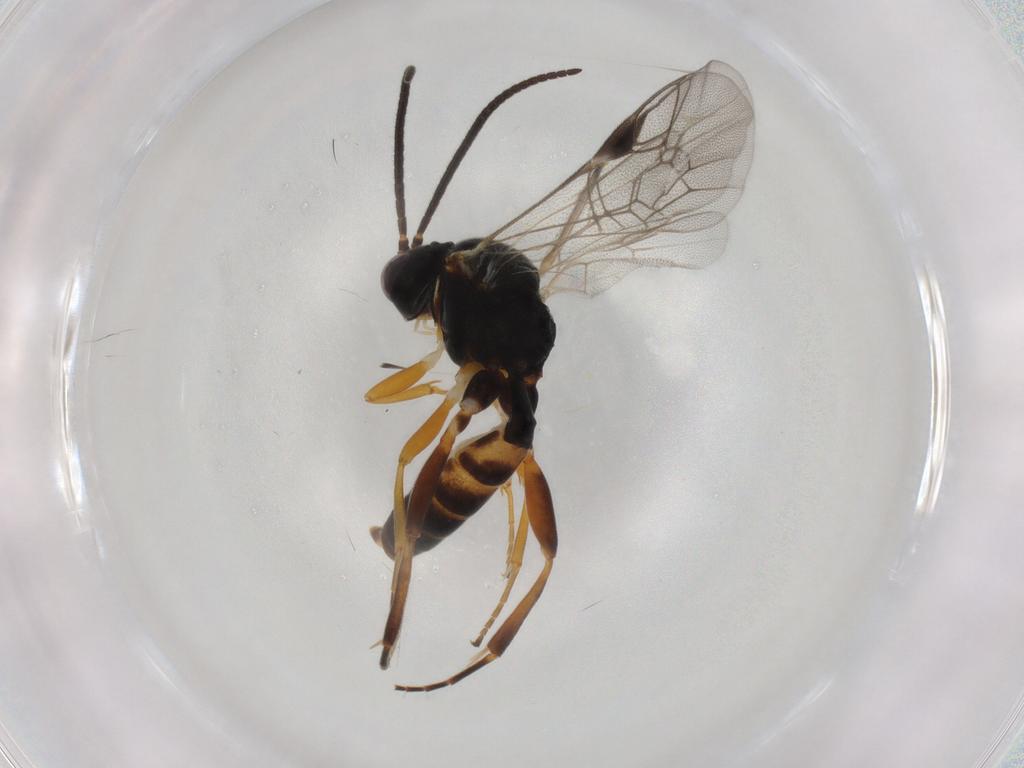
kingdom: Animalia
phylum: Arthropoda
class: Insecta
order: Hymenoptera
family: Ichneumonidae
